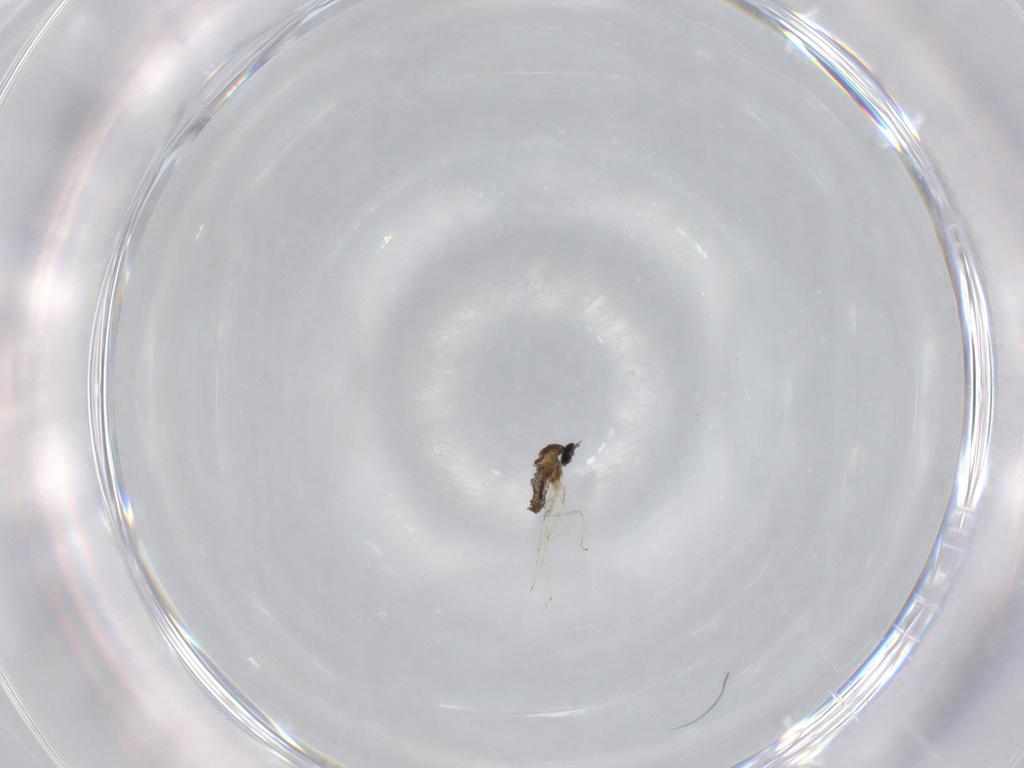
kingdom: Animalia
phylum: Arthropoda
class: Insecta
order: Diptera
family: Cecidomyiidae
